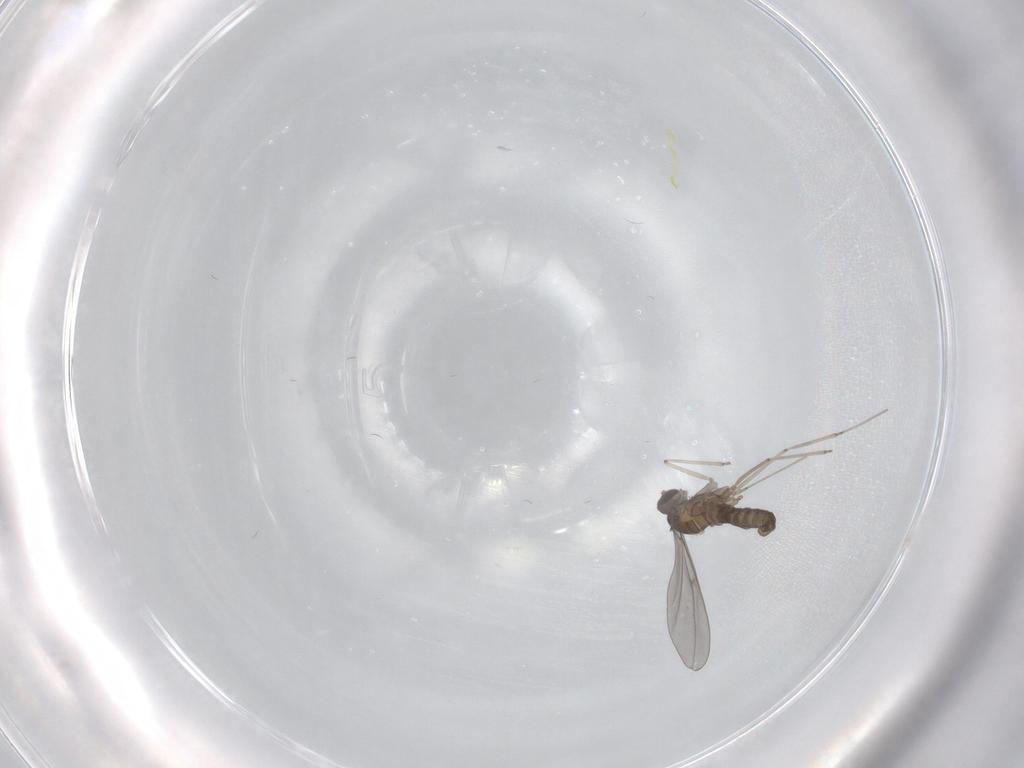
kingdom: Animalia
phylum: Arthropoda
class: Insecta
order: Diptera
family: Cecidomyiidae
